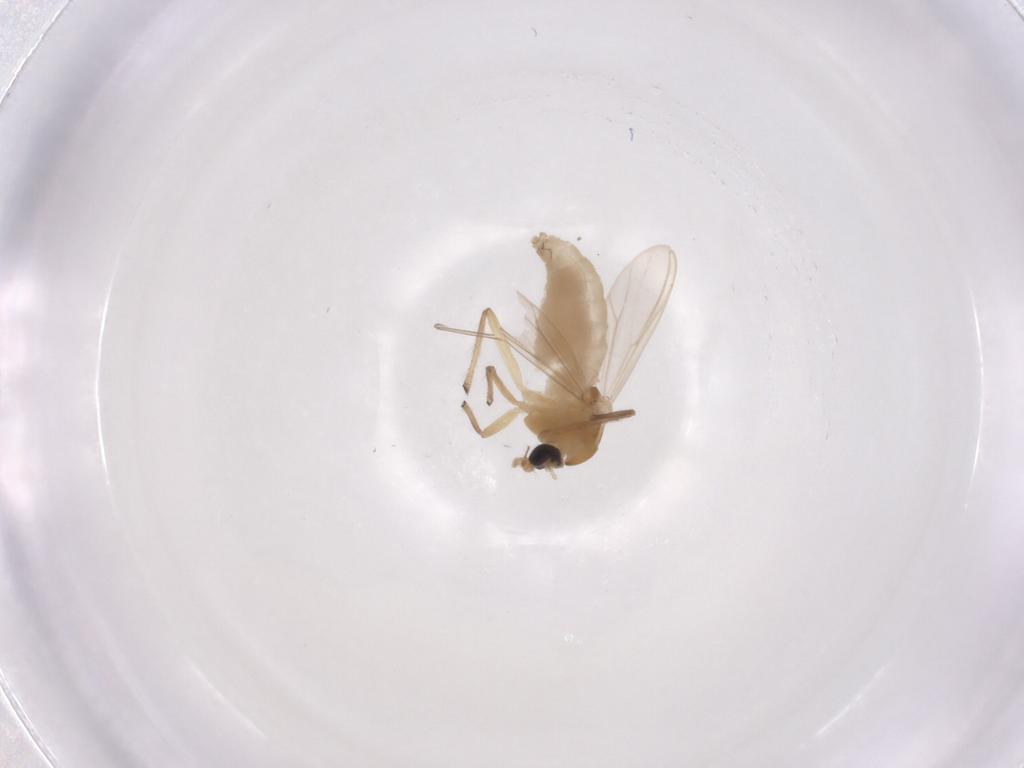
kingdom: Animalia
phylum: Arthropoda
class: Insecta
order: Diptera
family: Chironomidae
